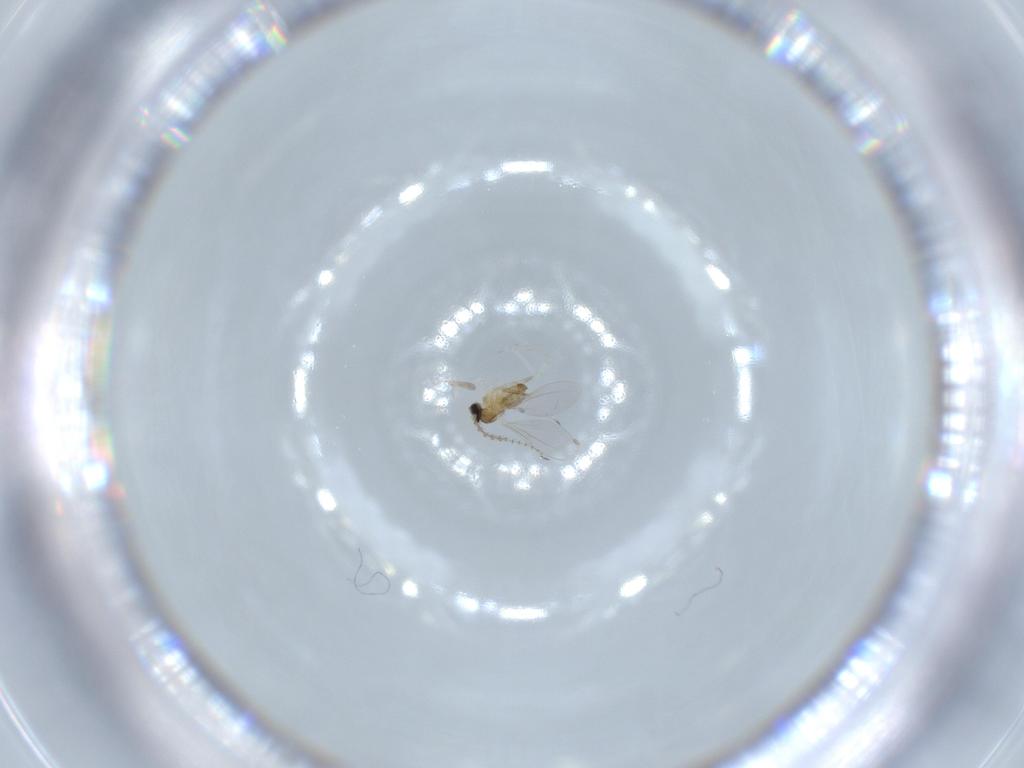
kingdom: Animalia
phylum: Arthropoda
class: Insecta
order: Diptera
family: Cecidomyiidae
